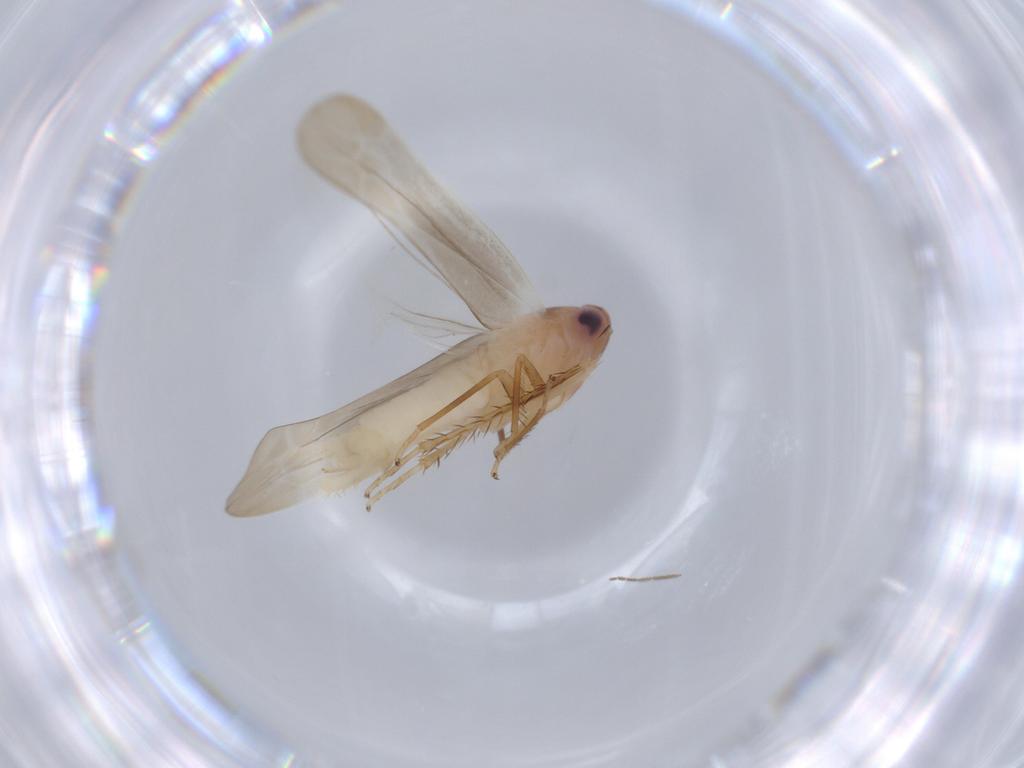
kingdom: Animalia
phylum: Arthropoda
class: Insecta
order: Hemiptera
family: Cicadellidae
